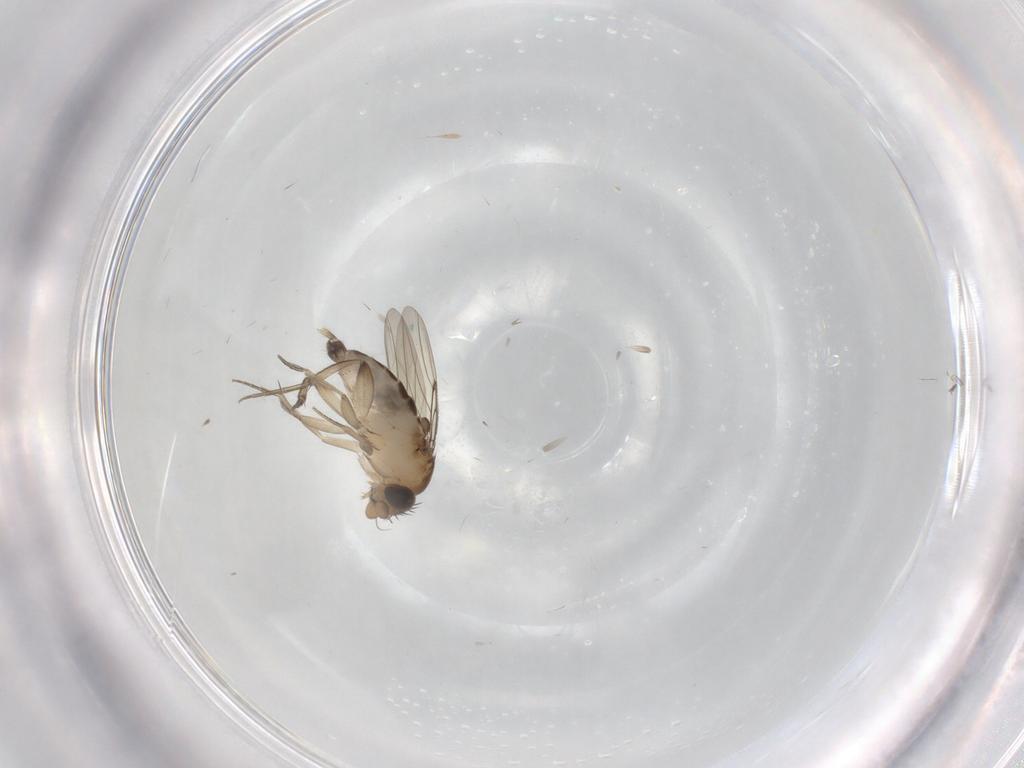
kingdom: Animalia
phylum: Arthropoda
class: Insecta
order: Diptera
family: Phoridae
